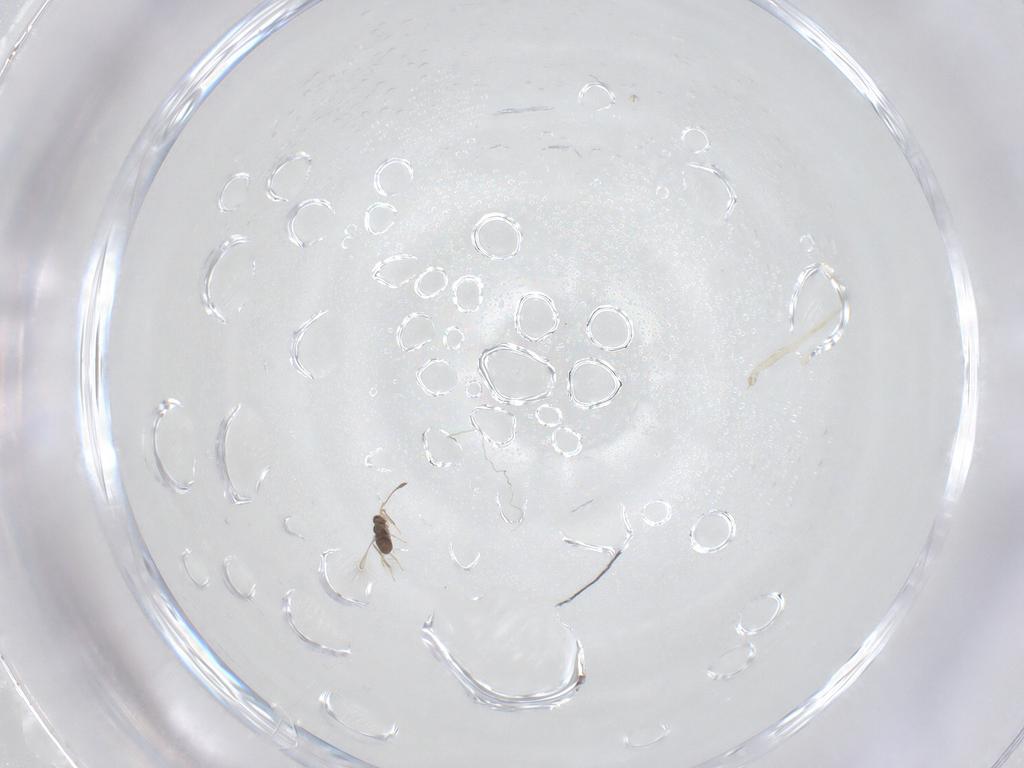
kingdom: Animalia
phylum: Arthropoda
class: Insecta
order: Hymenoptera
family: Mymaridae
